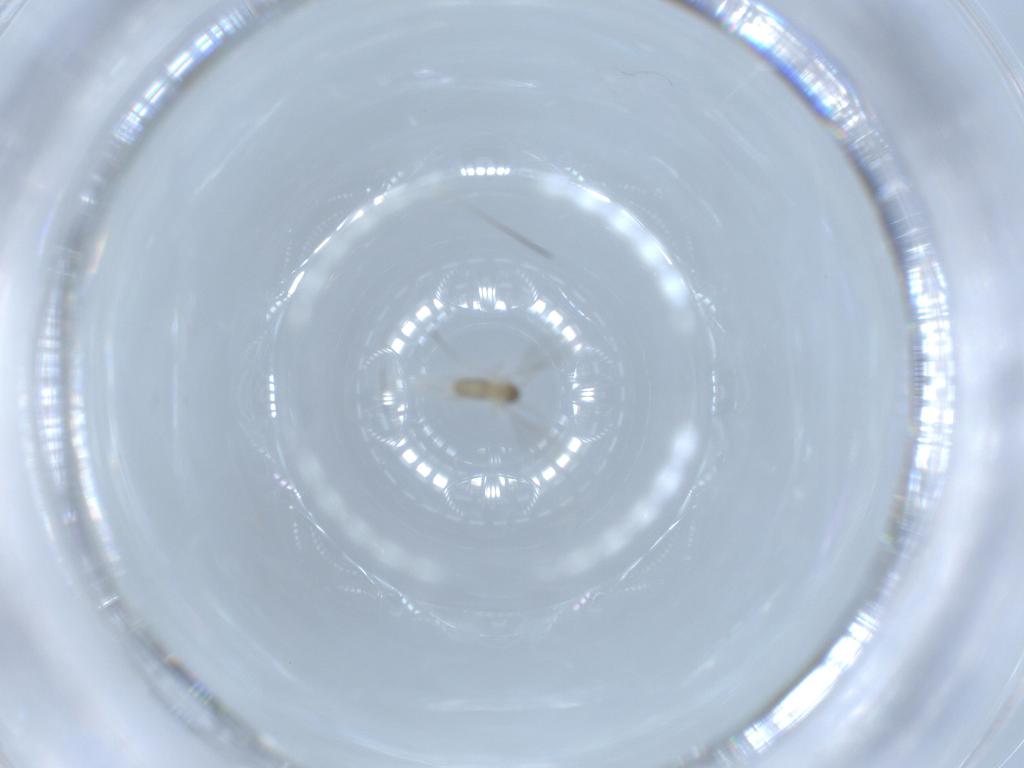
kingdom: Animalia
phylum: Arthropoda
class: Insecta
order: Diptera
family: Cecidomyiidae
